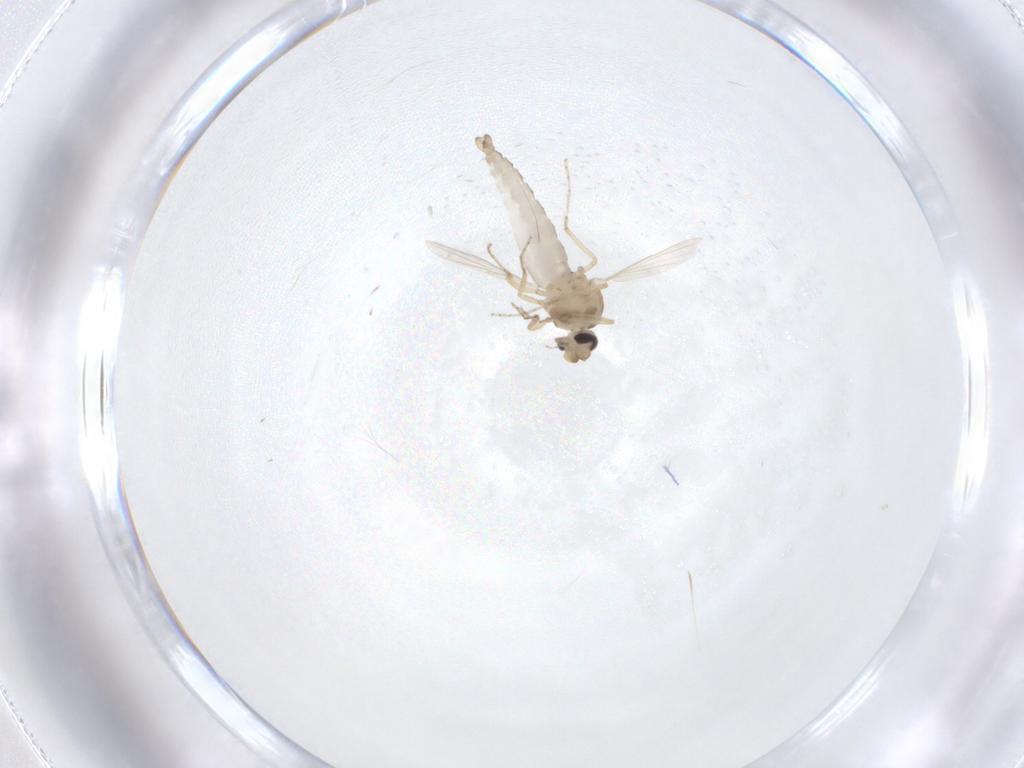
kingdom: Animalia
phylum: Arthropoda
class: Insecta
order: Diptera
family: Ceratopogonidae
